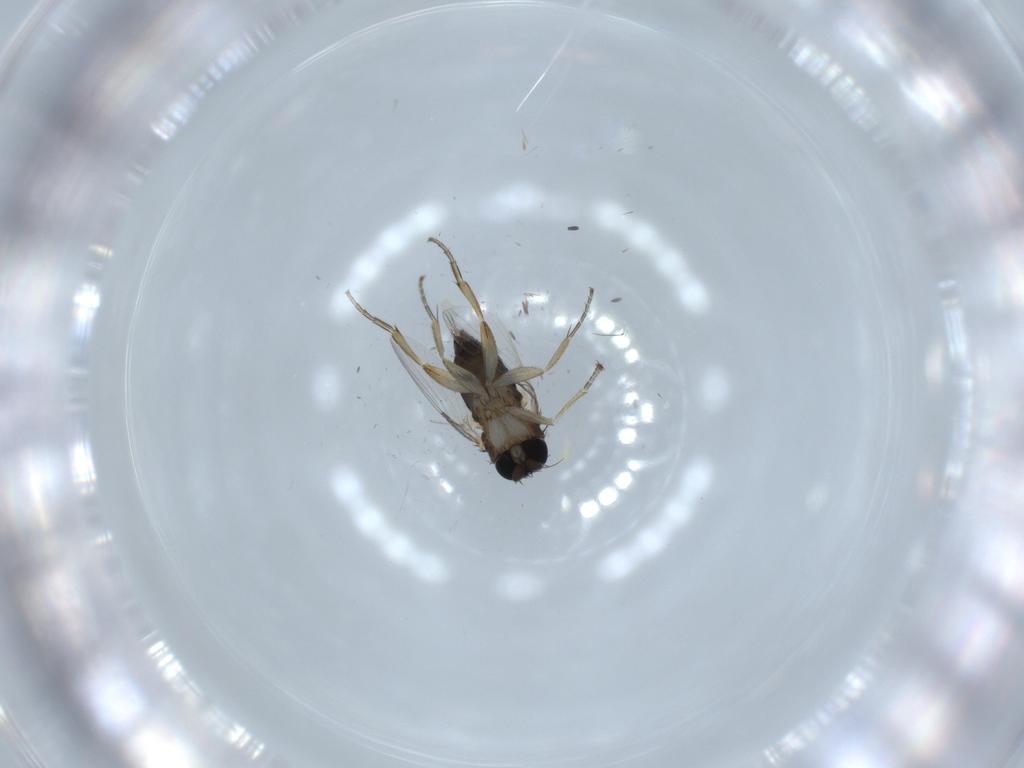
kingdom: Animalia
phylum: Arthropoda
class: Insecta
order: Diptera
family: Phoridae
